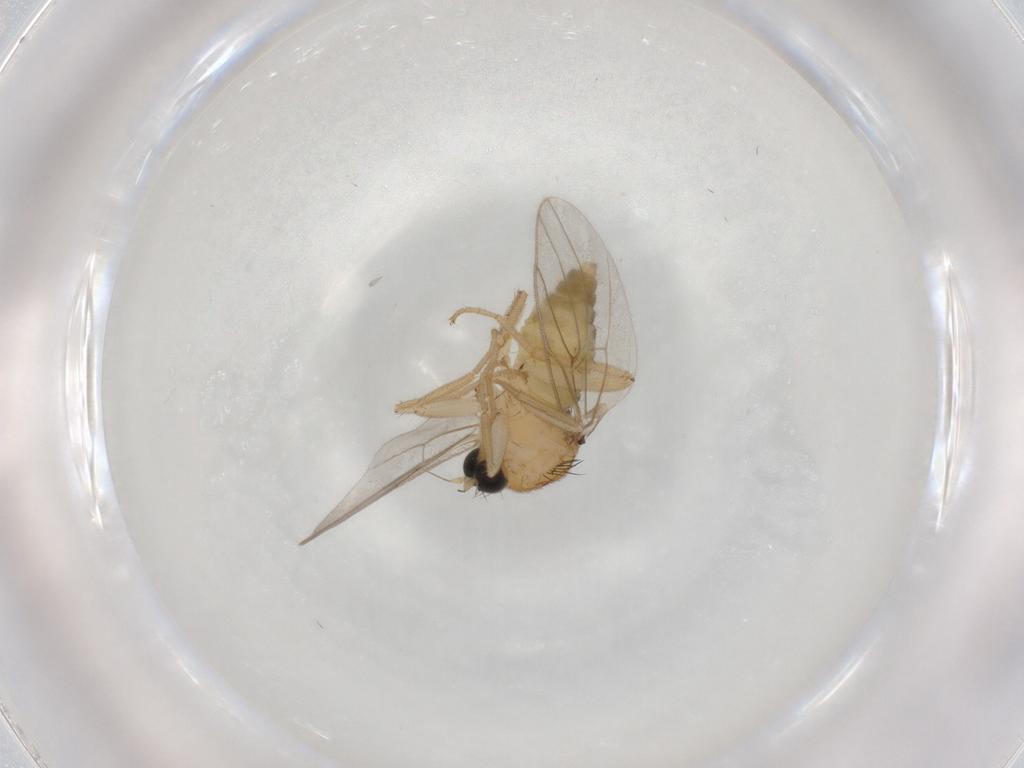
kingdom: Animalia
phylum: Arthropoda
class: Insecta
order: Diptera
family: Hybotidae
